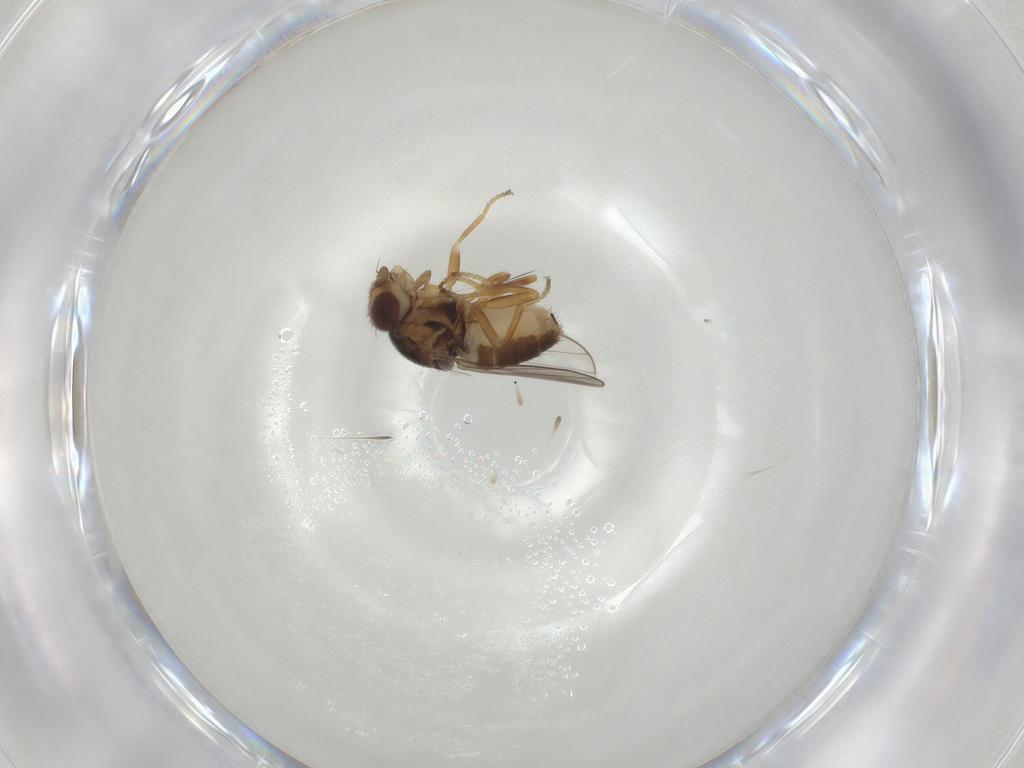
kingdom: Animalia
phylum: Arthropoda
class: Insecta
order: Diptera
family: Chloropidae
